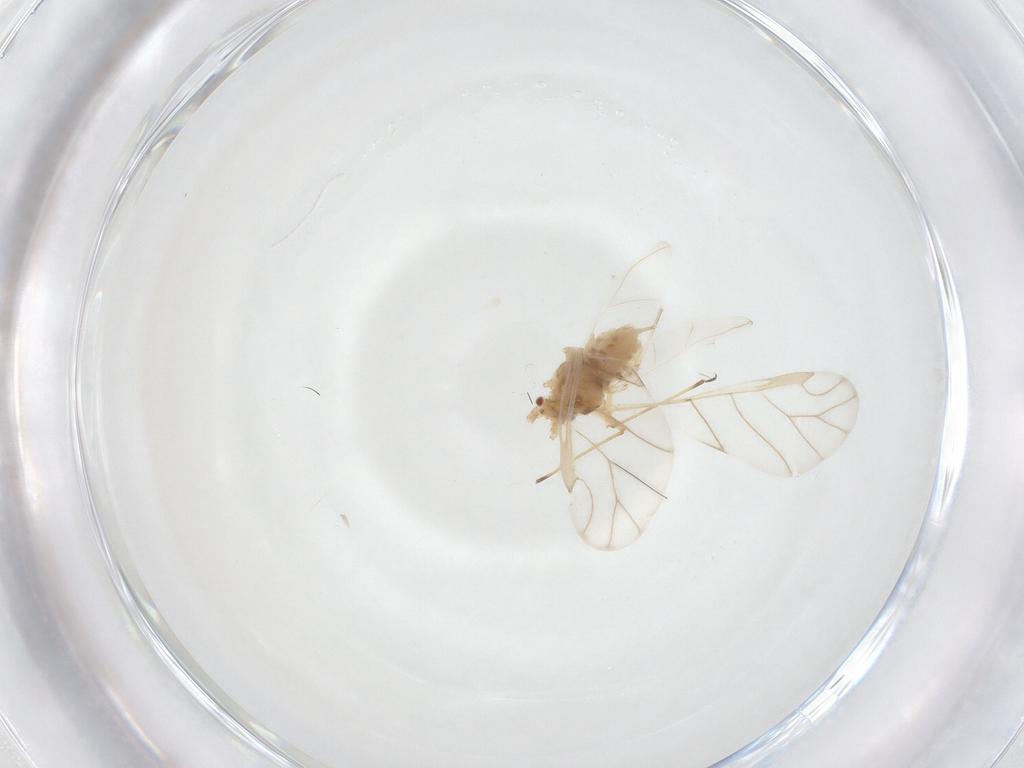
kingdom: Animalia
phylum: Arthropoda
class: Insecta
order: Hemiptera
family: Aphididae
